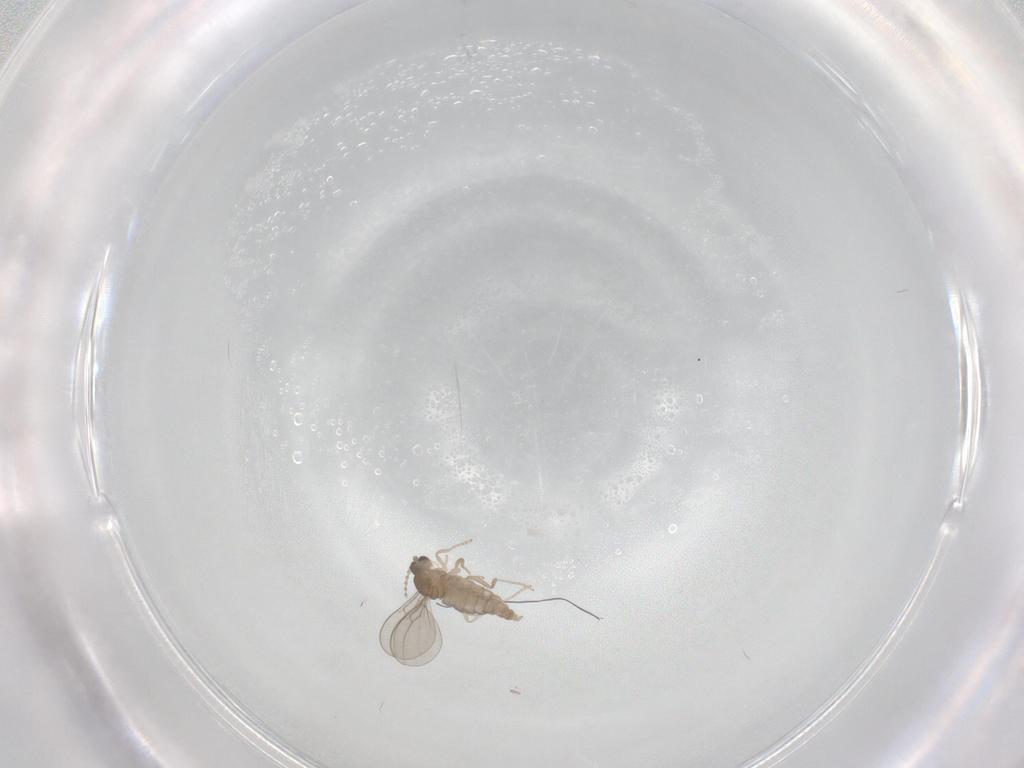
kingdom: Animalia
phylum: Arthropoda
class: Insecta
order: Diptera
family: Cecidomyiidae
